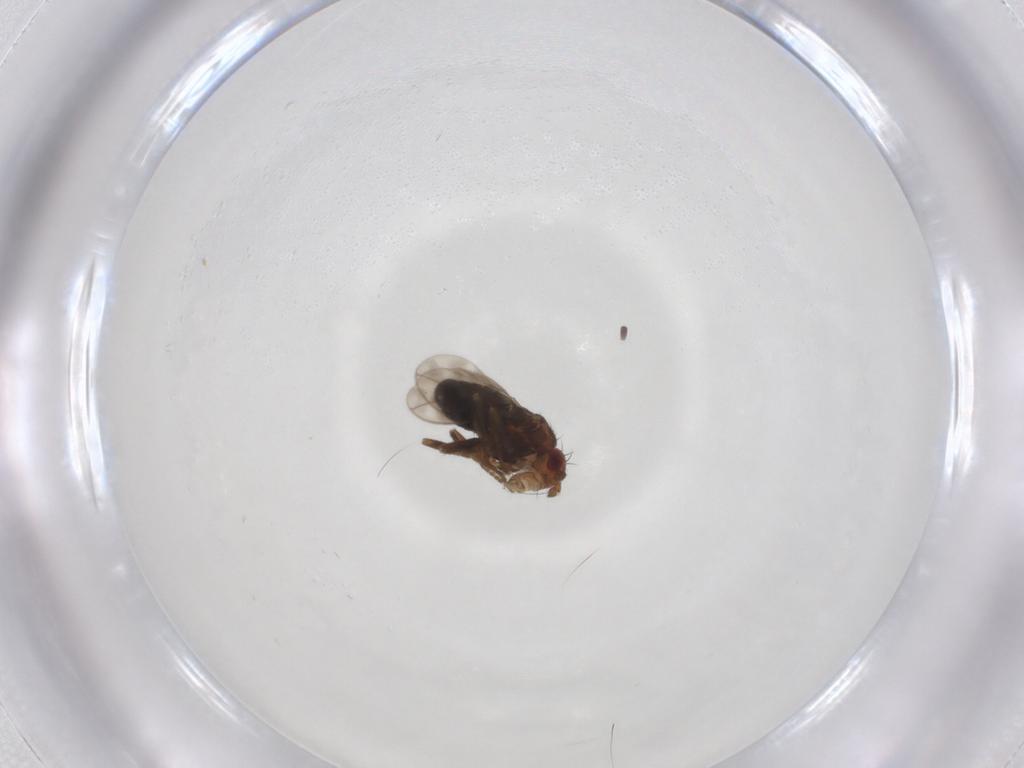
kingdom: Animalia
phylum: Arthropoda
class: Insecta
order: Diptera
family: Sphaeroceridae
